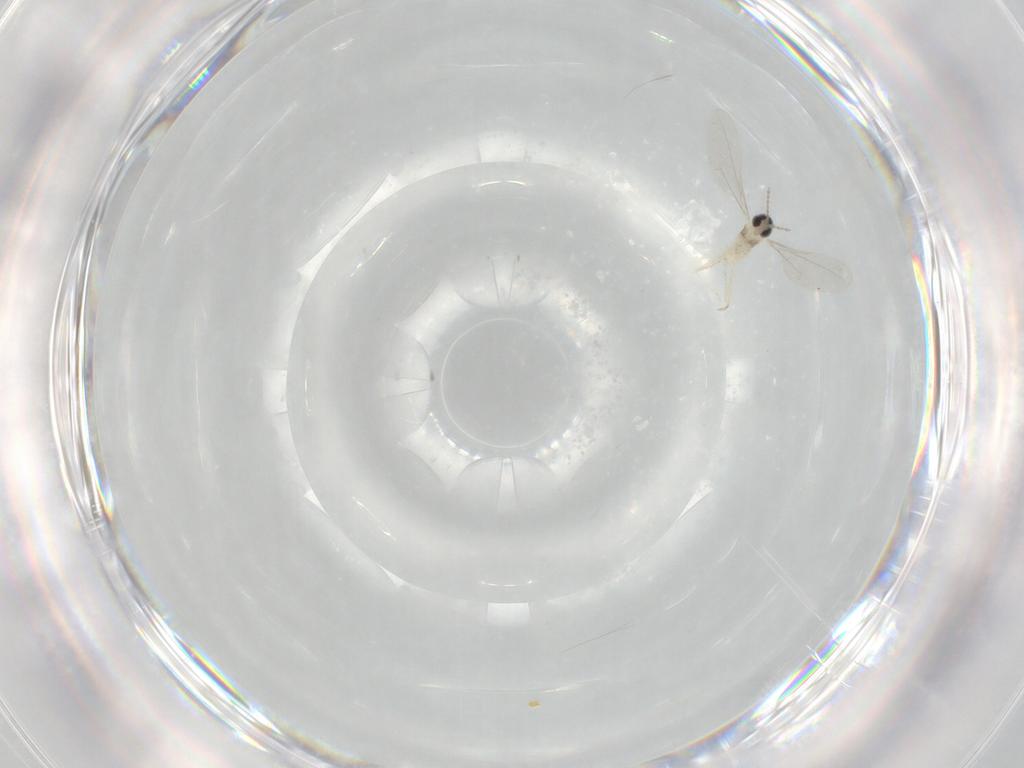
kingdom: Animalia
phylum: Arthropoda
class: Insecta
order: Diptera
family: Cecidomyiidae
